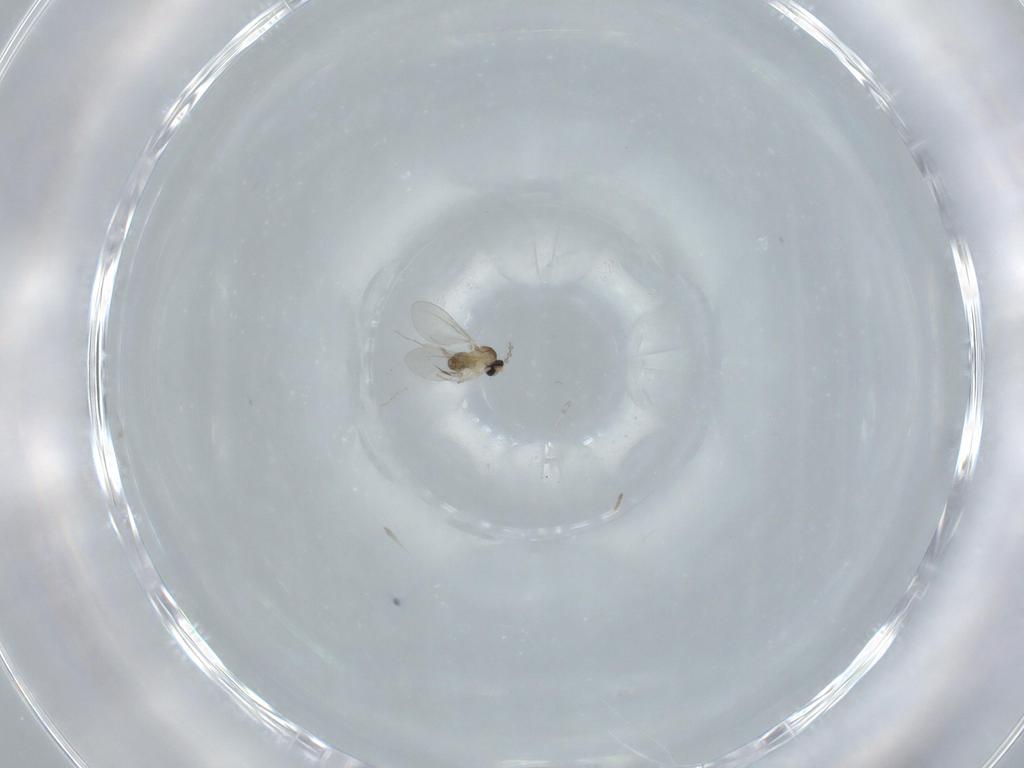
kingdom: Animalia
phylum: Arthropoda
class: Insecta
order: Diptera
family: Cecidomyiidae
